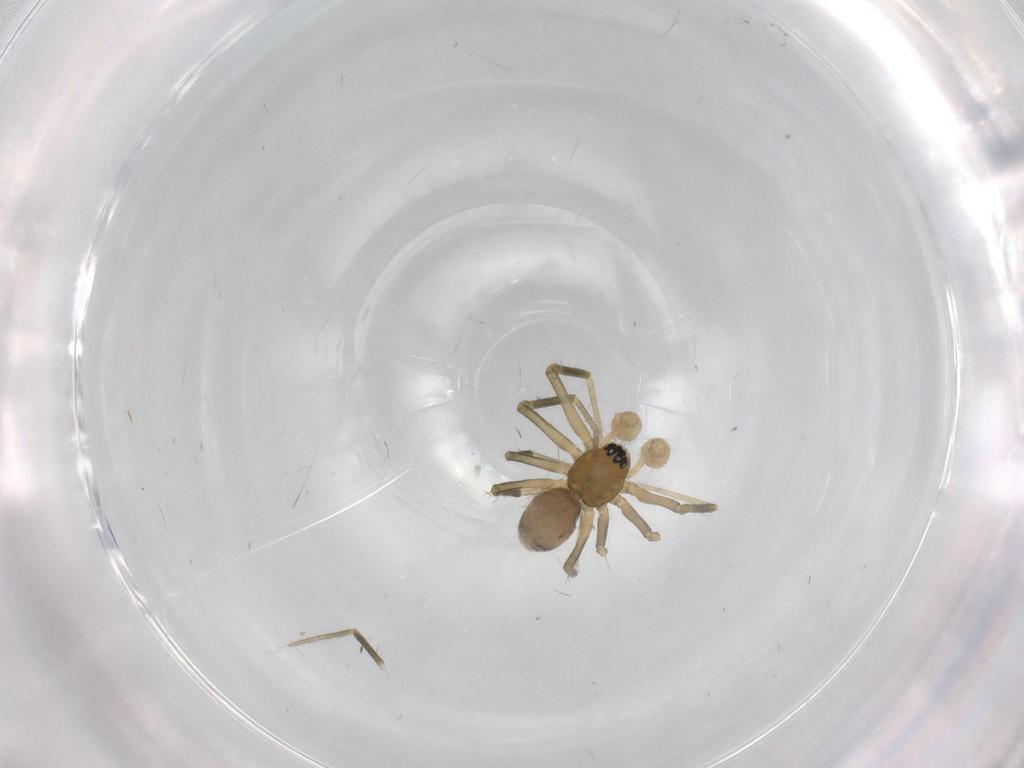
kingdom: Animalia
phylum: Arthropoda
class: Arachnida
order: Araneae
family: Linyphiidae
